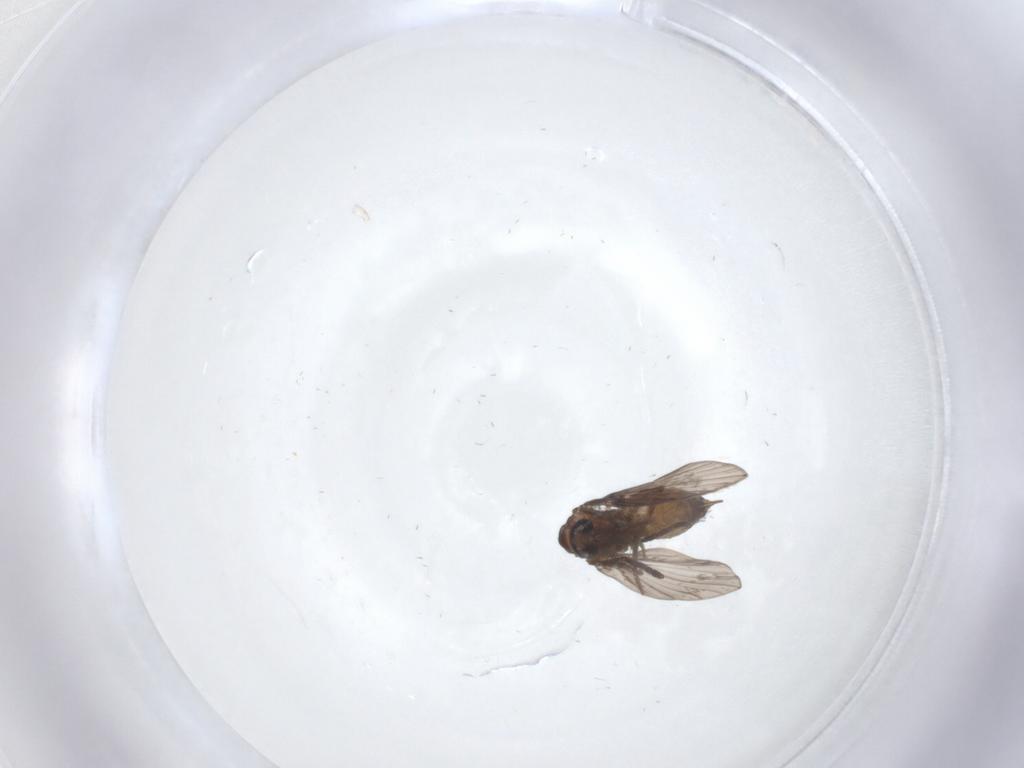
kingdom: Animalia
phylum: Arthropoda
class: Insecta
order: Diptera
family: Psychodidae
